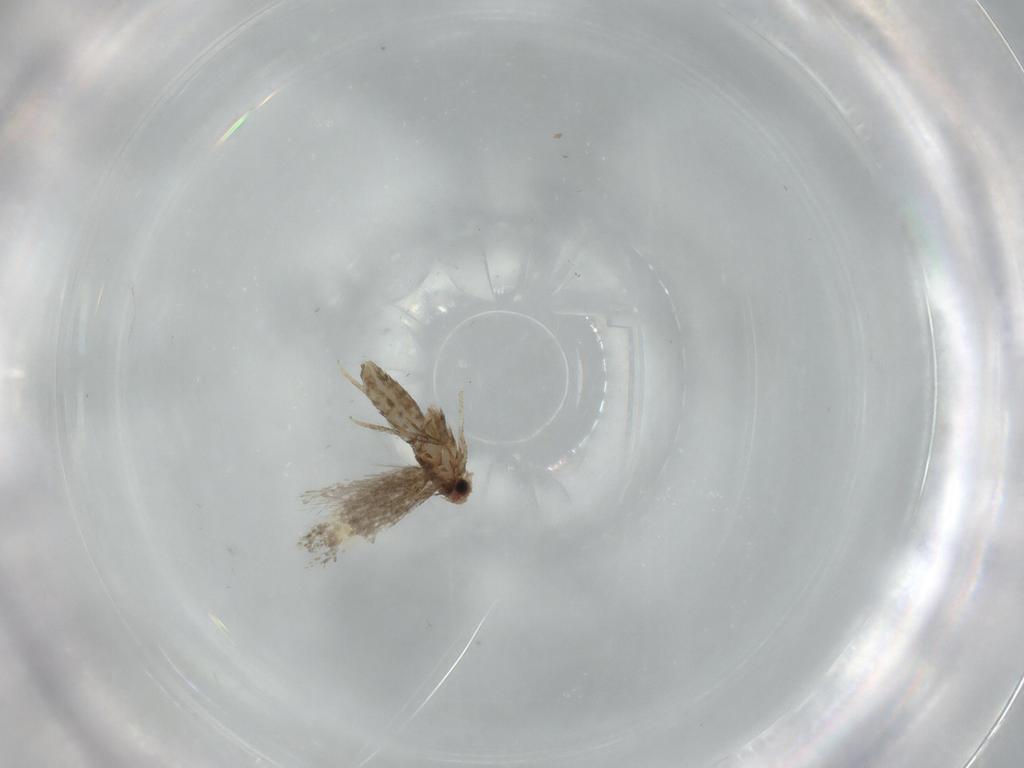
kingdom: Animalia
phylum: Arthropoda
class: Insecta
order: Lepidoptera
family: Nepticulidae
